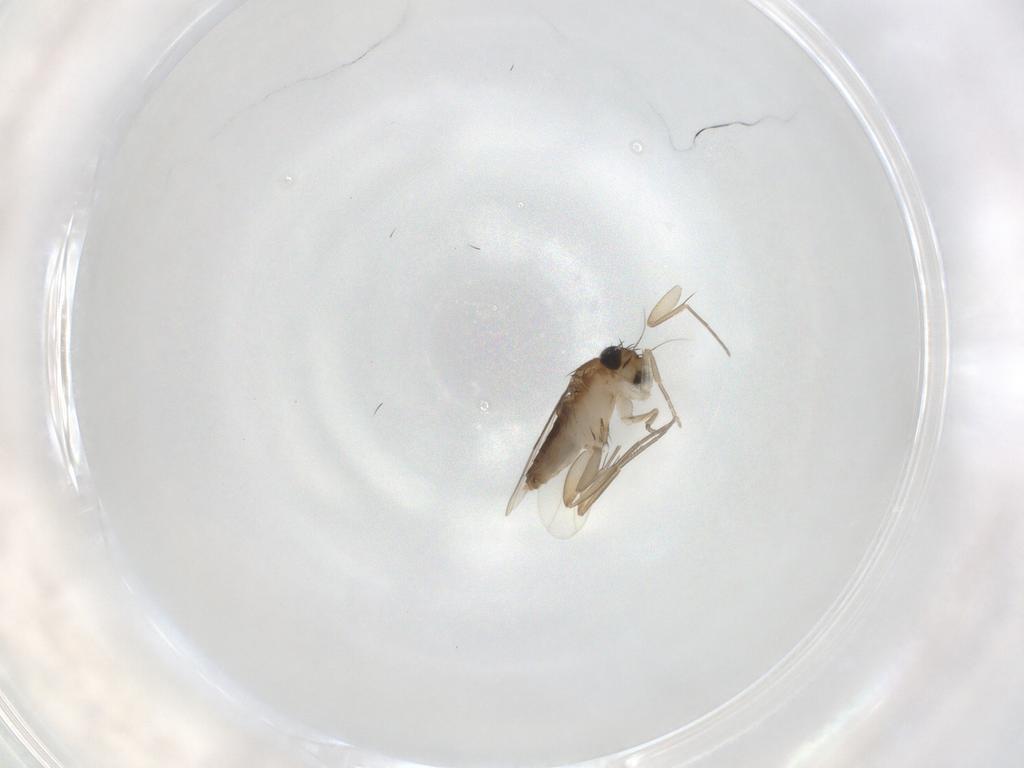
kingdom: Animalia
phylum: Arthropoda
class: Insecta
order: Diptera
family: Phoridae
